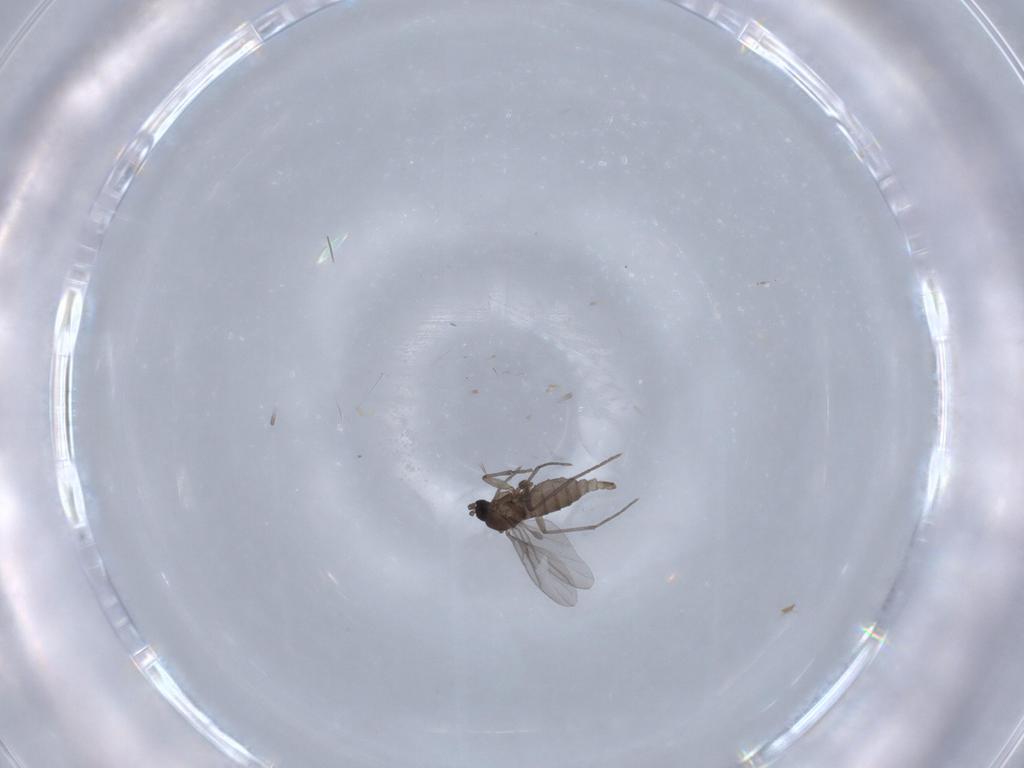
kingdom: Animalia
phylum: Arthropoda
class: Insecta
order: Diptera
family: Sciaridae
